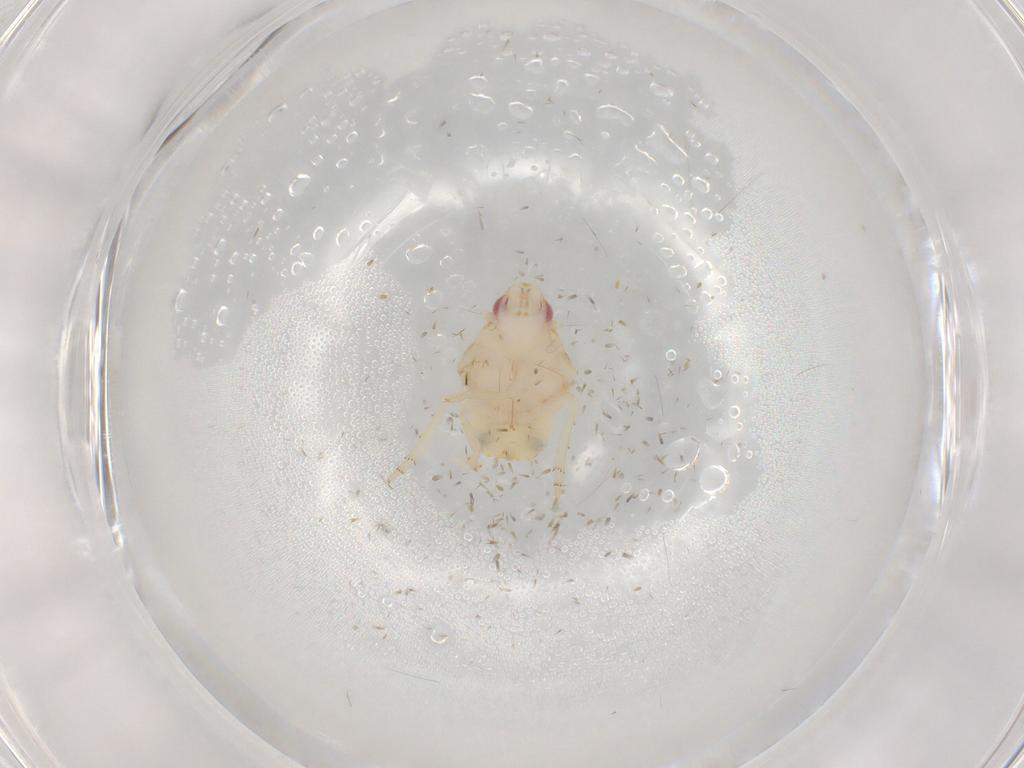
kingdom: Animalia
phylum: Arthropoda
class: Insecta
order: Hemiptera
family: Flatidae
